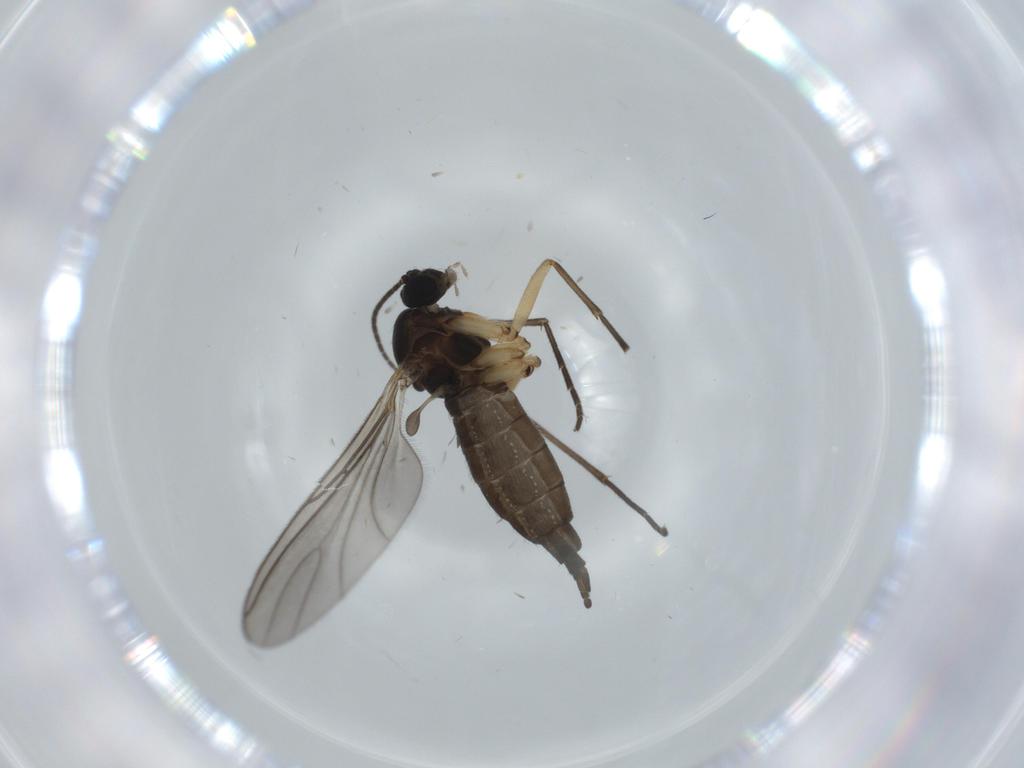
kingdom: Animalia
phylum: Arthropoda
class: Insecta
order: Diptera
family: Sciaridae
